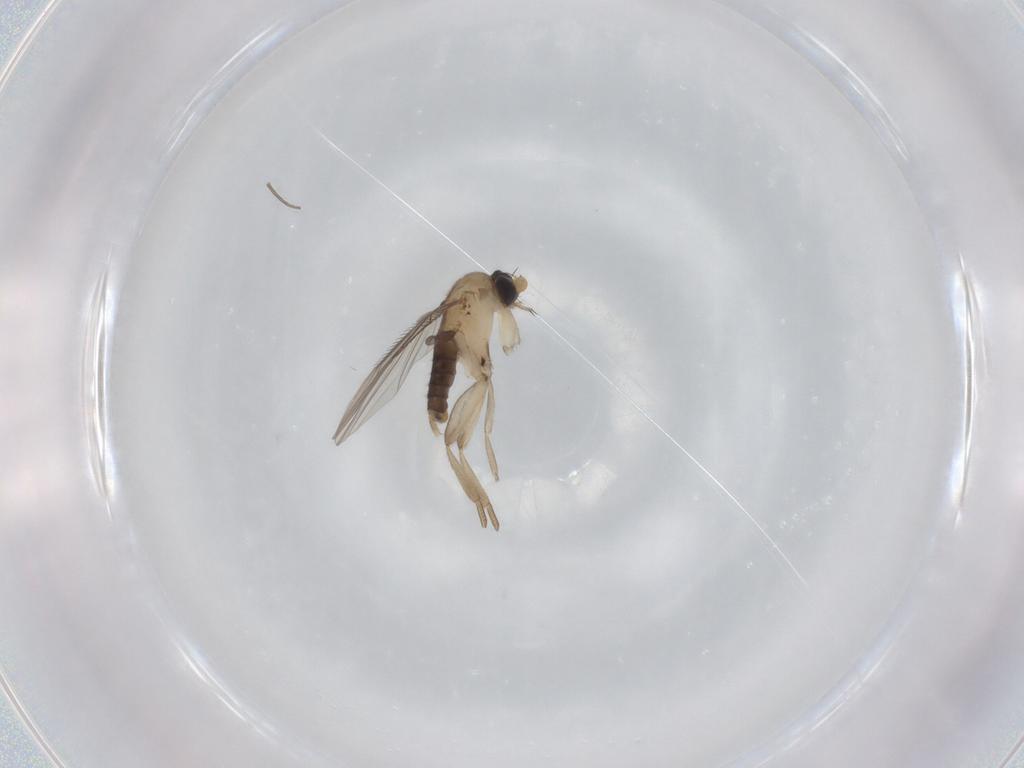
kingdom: Animalia
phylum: Arthropoda
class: Insecta
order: Diptera
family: Phoridae
